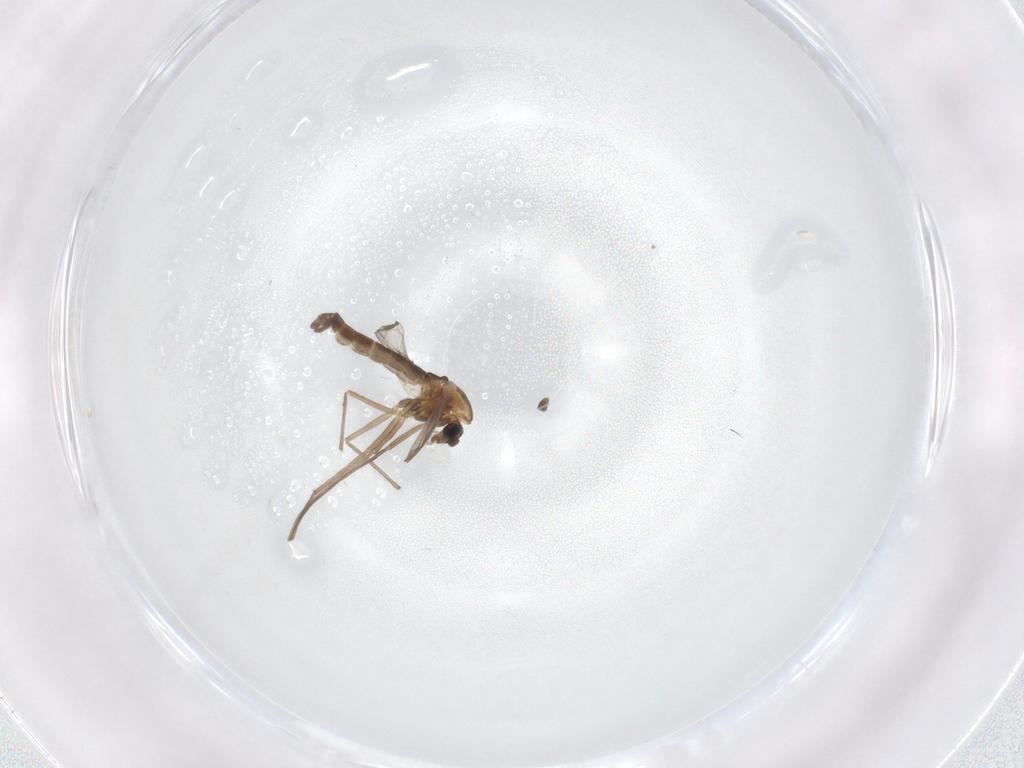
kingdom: Animalia
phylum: Arthropoda
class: Insecta
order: Diptera
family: Chironomidae
